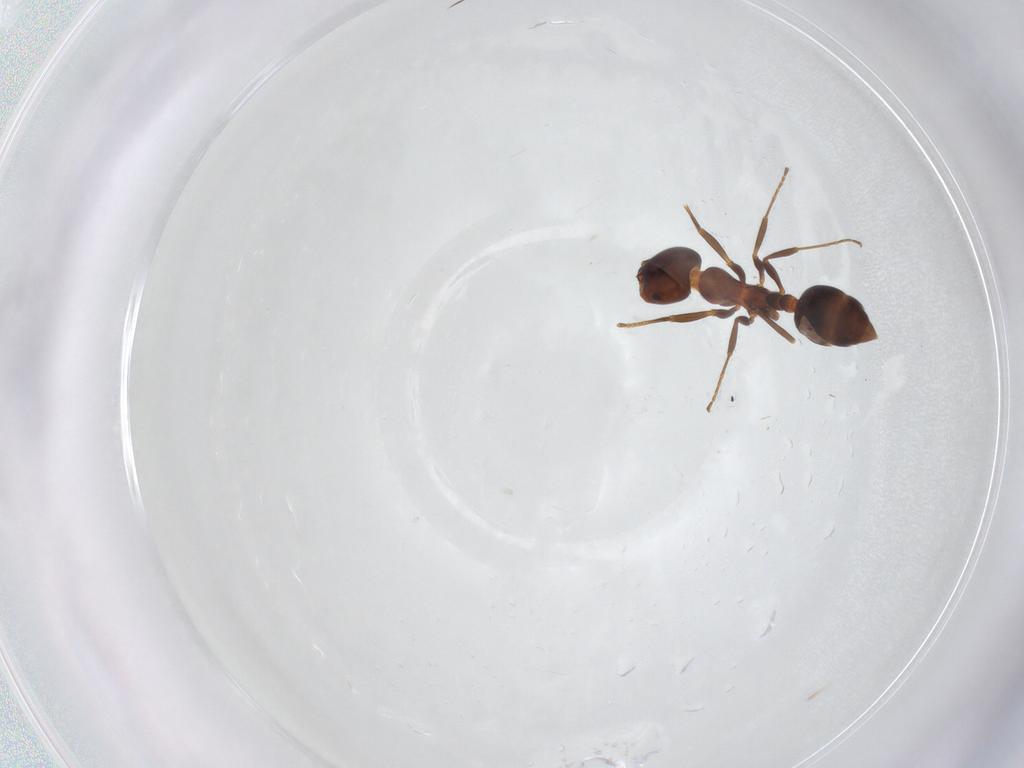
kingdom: Animalia
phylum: Arthropoda
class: Insecta
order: Hymenoptera
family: Formicidae
